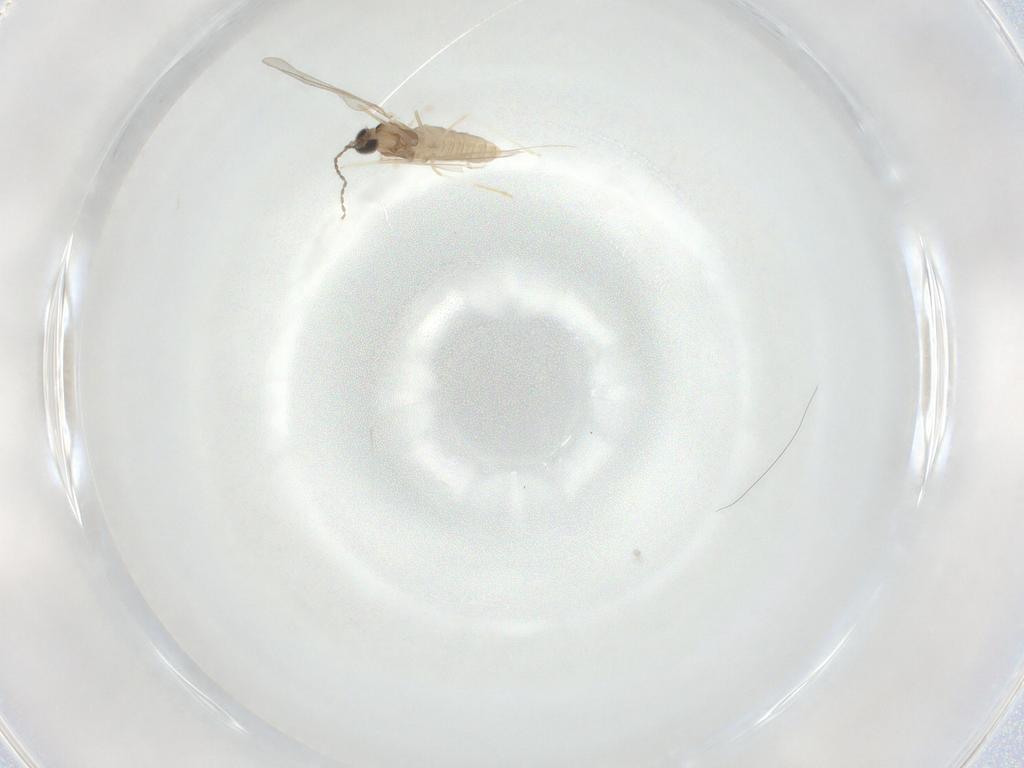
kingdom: Animalia
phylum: Arthropoda
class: Insecta
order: Diptera
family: Cecidomyiidae
